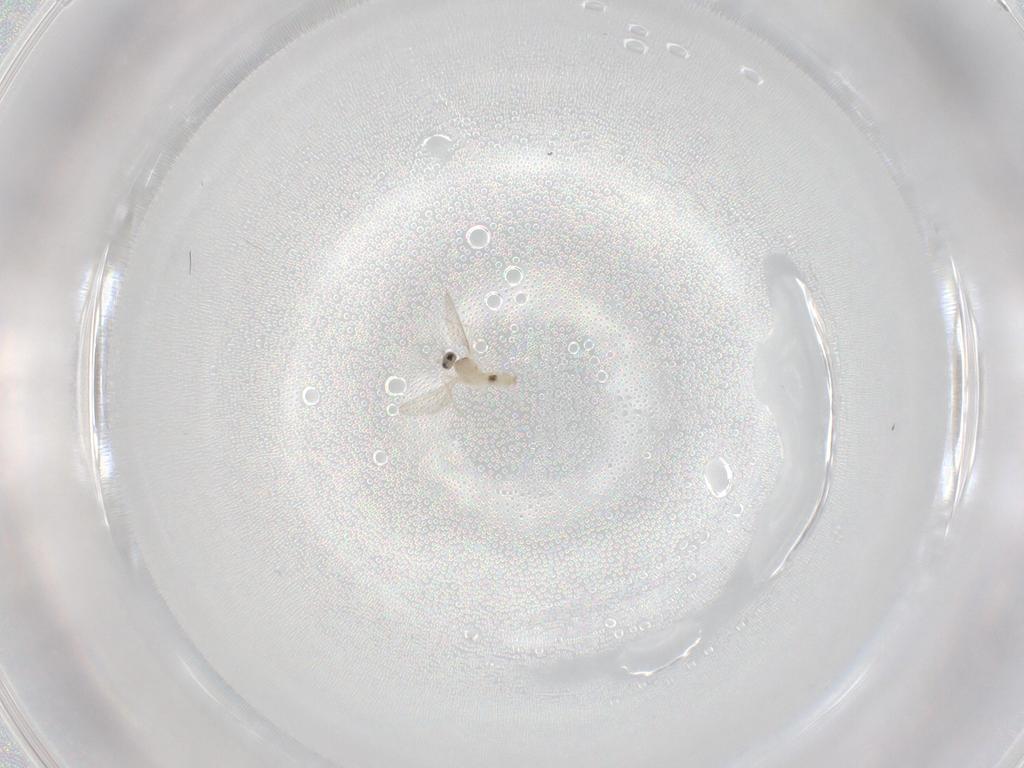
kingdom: Animalia
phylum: Arthropoda
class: Insecta
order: Diptera
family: Cecidomyiidae
